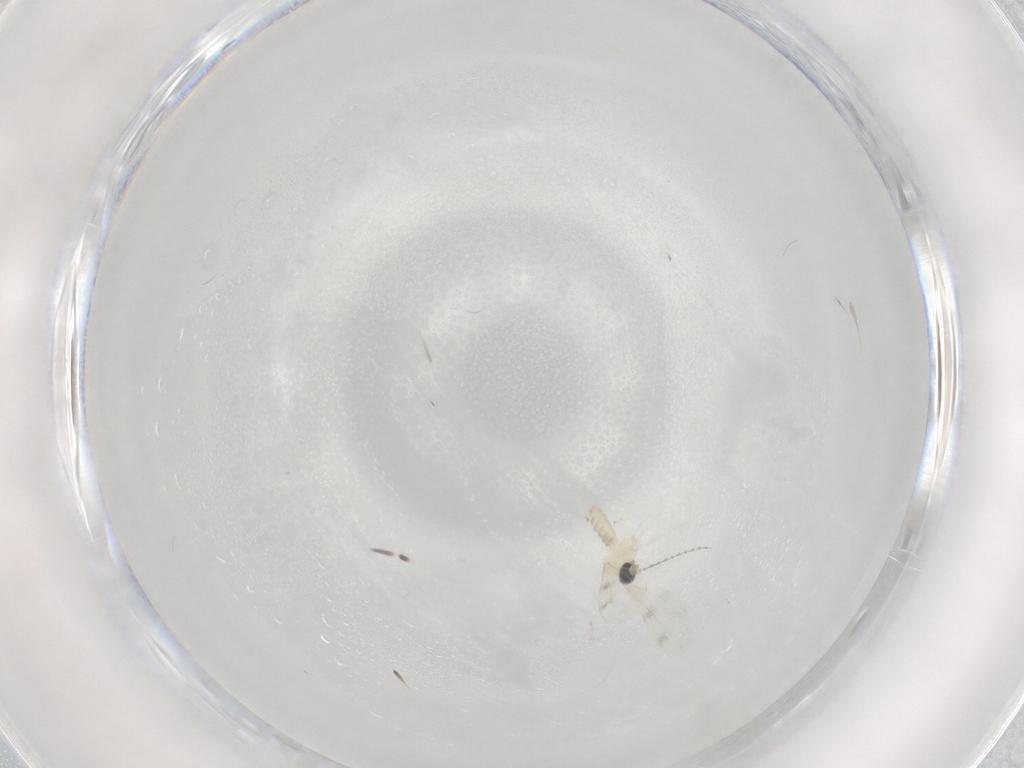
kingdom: Animalia
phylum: Arthropoda
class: Insecta
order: Diptera
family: Cecidomyiidae
